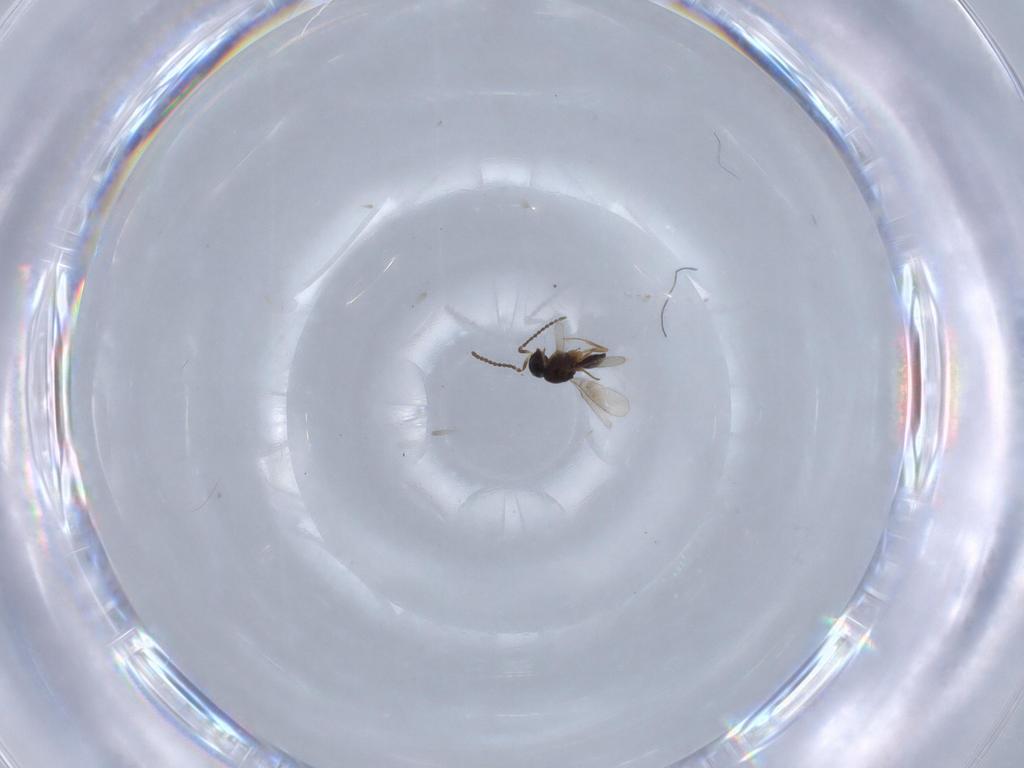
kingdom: Animalia
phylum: Arthropoda
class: Insecta
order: Hymenoptera
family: Scelionidae
